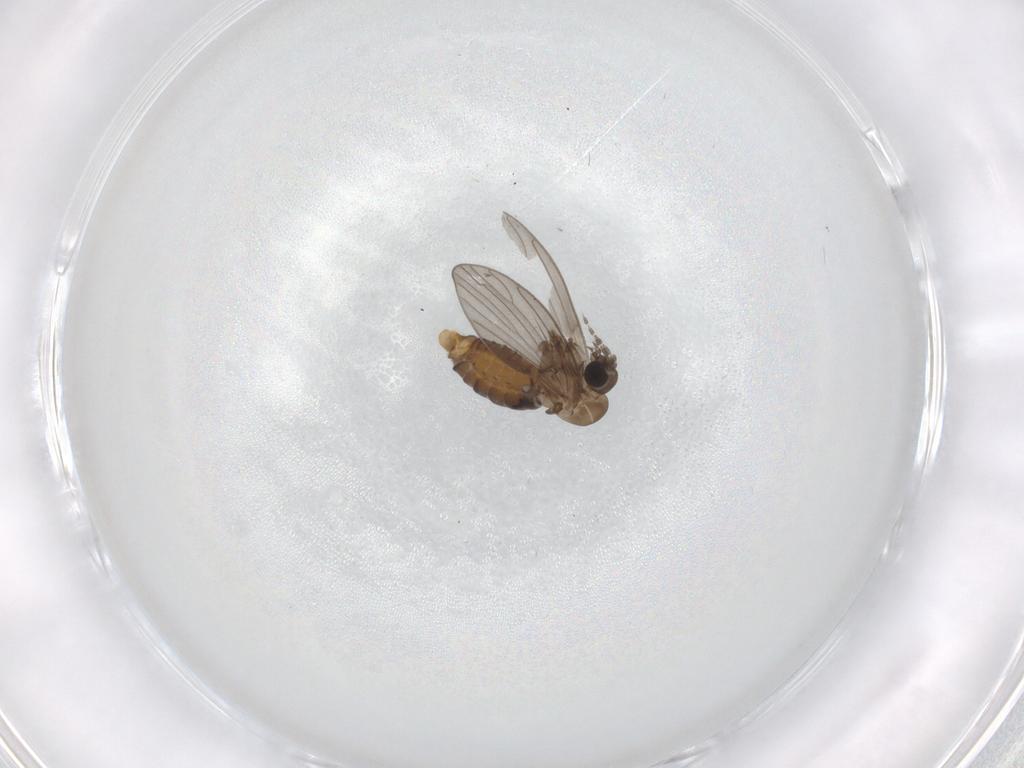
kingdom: Animalia
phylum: Arthropoda
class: Insecta
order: Diptera
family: Psychodidae
